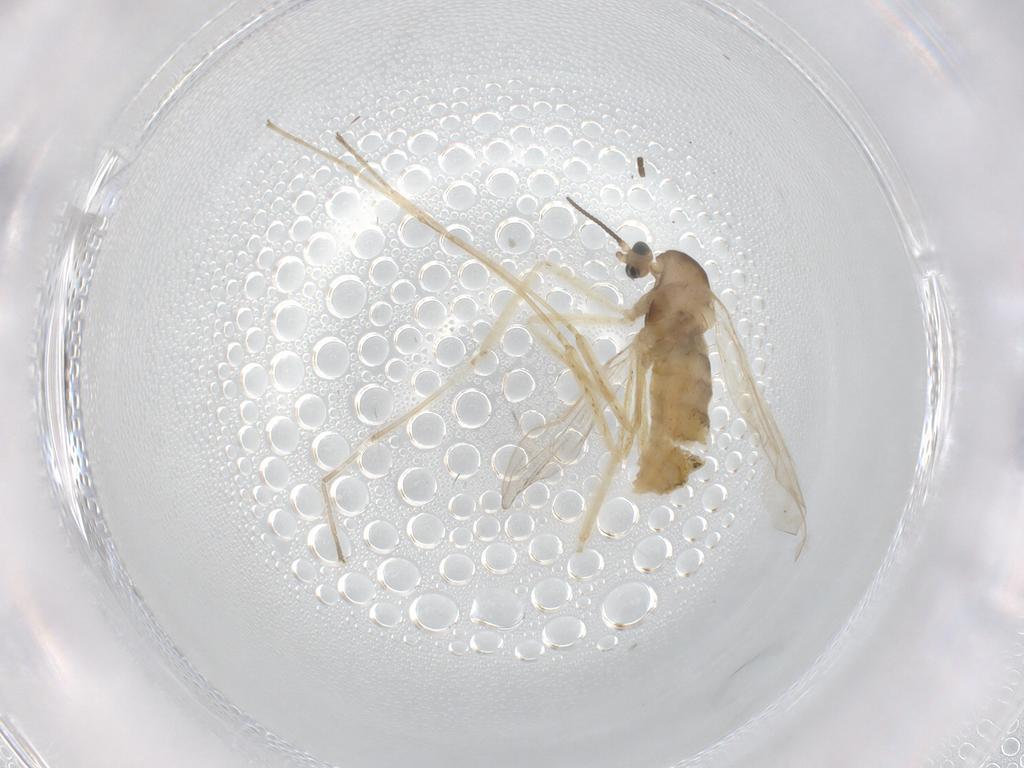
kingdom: Animalia
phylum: Arthropoda
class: Insecta
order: Diptera
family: Cecidomyiidae
